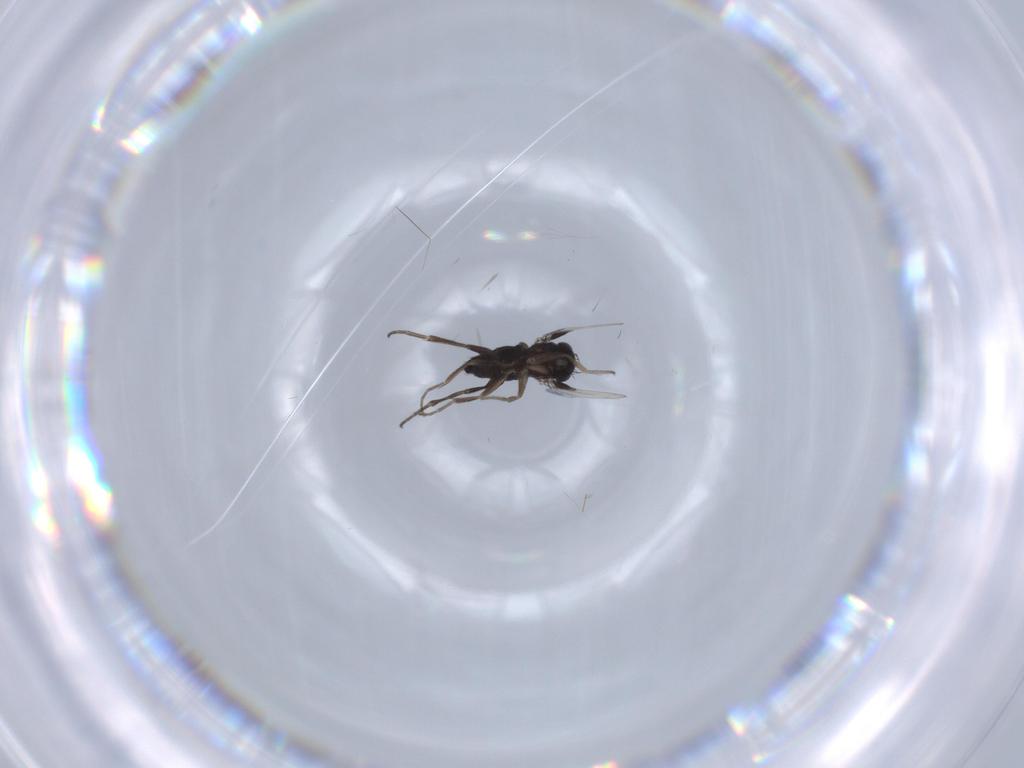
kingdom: Animalia
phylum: Arthropoda
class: Insecta
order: Diptera
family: Phoridae
